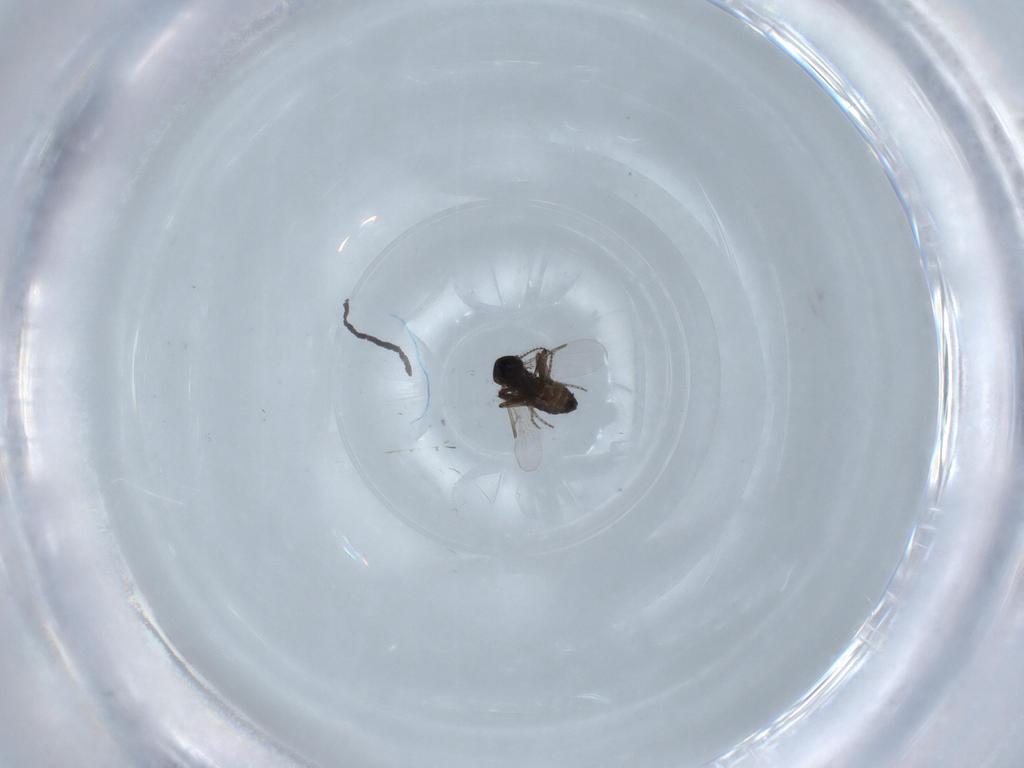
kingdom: Animalia
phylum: Arthropoda
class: Insecta
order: Diptera
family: Ceratopogonidae
